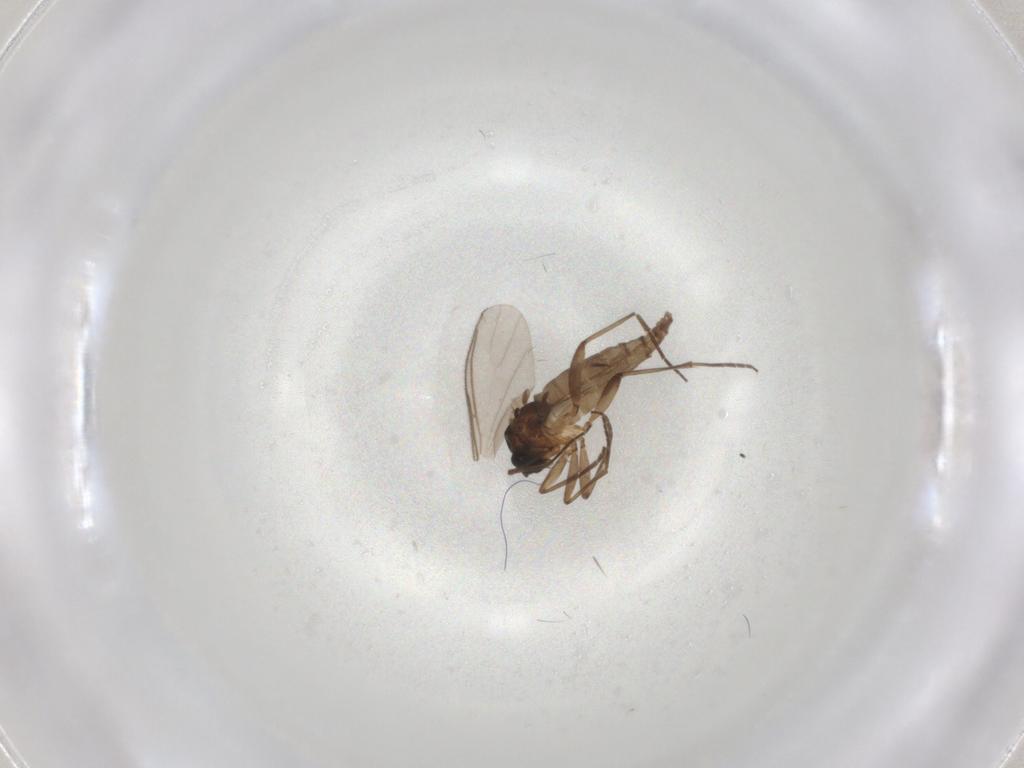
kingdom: Animalia
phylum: Arthropoda
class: Insecta
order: Diptera
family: Sciaridae
